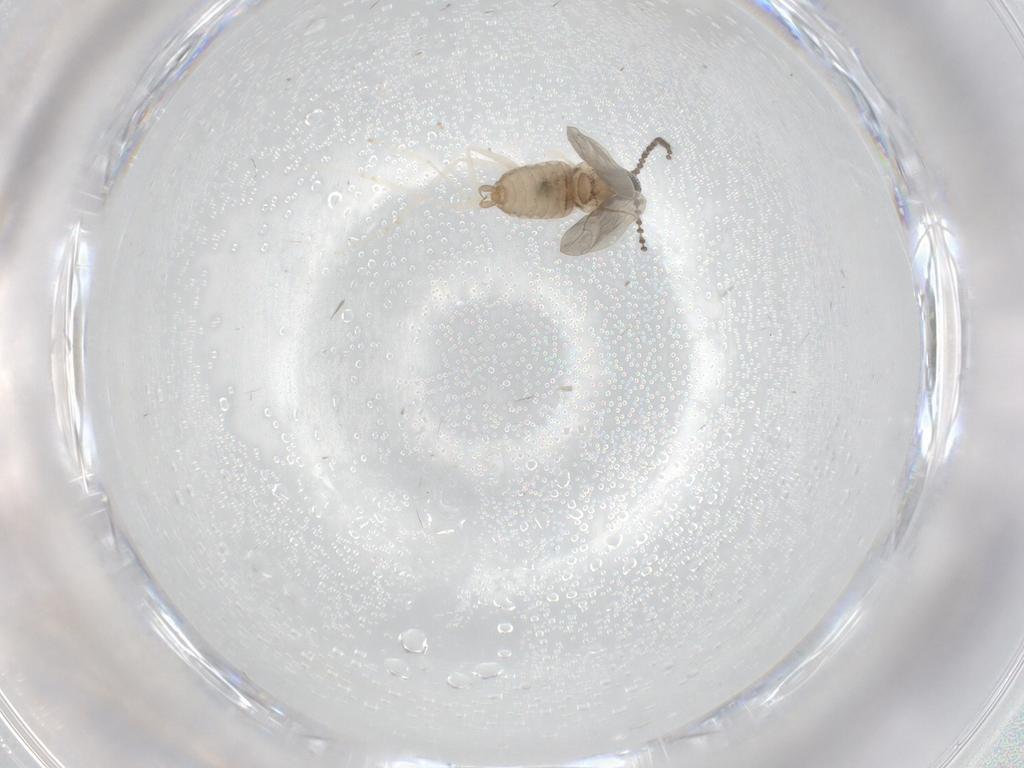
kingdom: Animalia
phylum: Arthropoda
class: Insecta
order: Diptera
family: Ceratopogonidae
